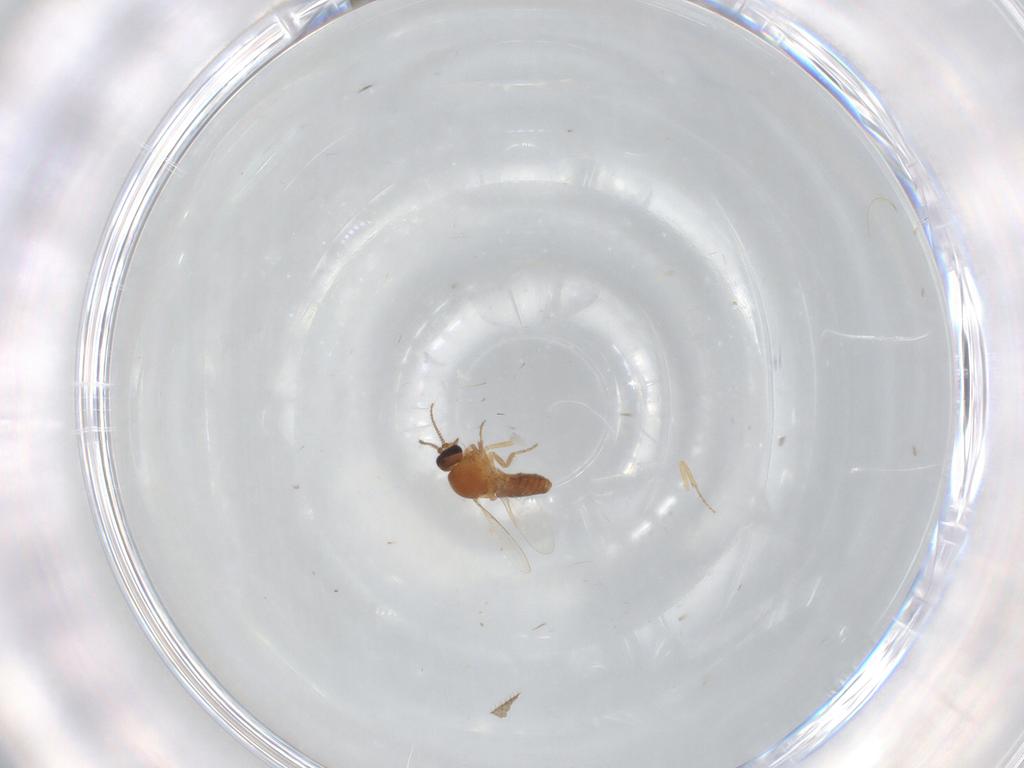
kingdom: Animalia
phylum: Arthropoda
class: Insecta
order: Diptera
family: Ceratopogonidae
